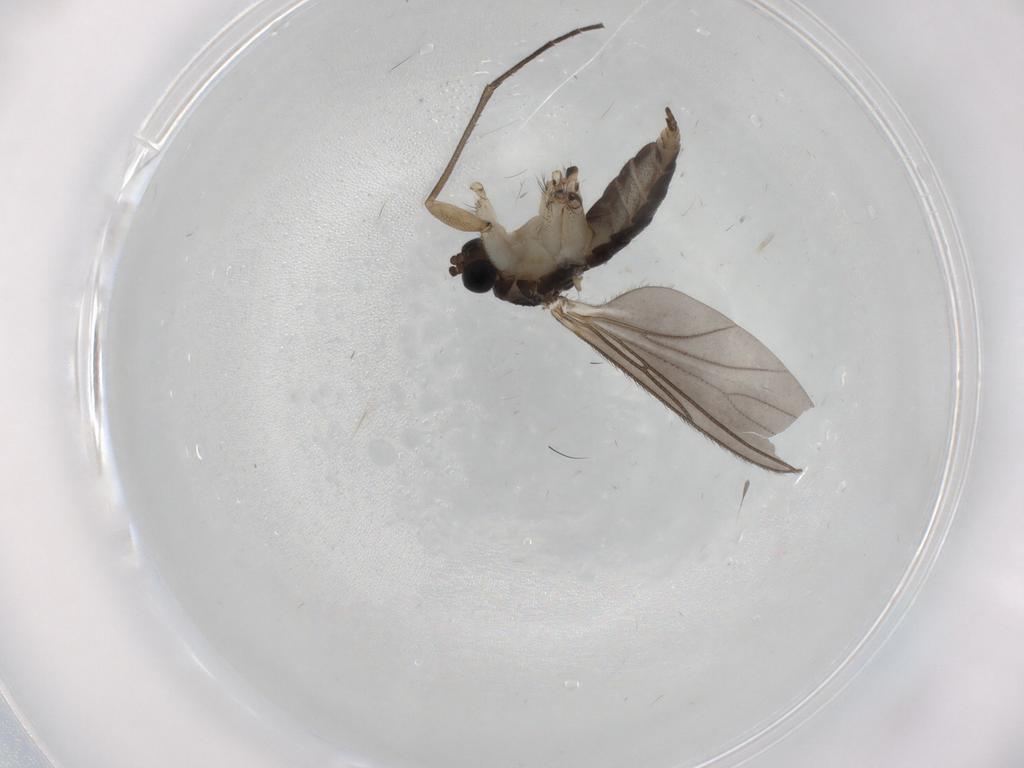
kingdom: Animalia
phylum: Arthropoda
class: Insecta
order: Diptera
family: Sciaridae
